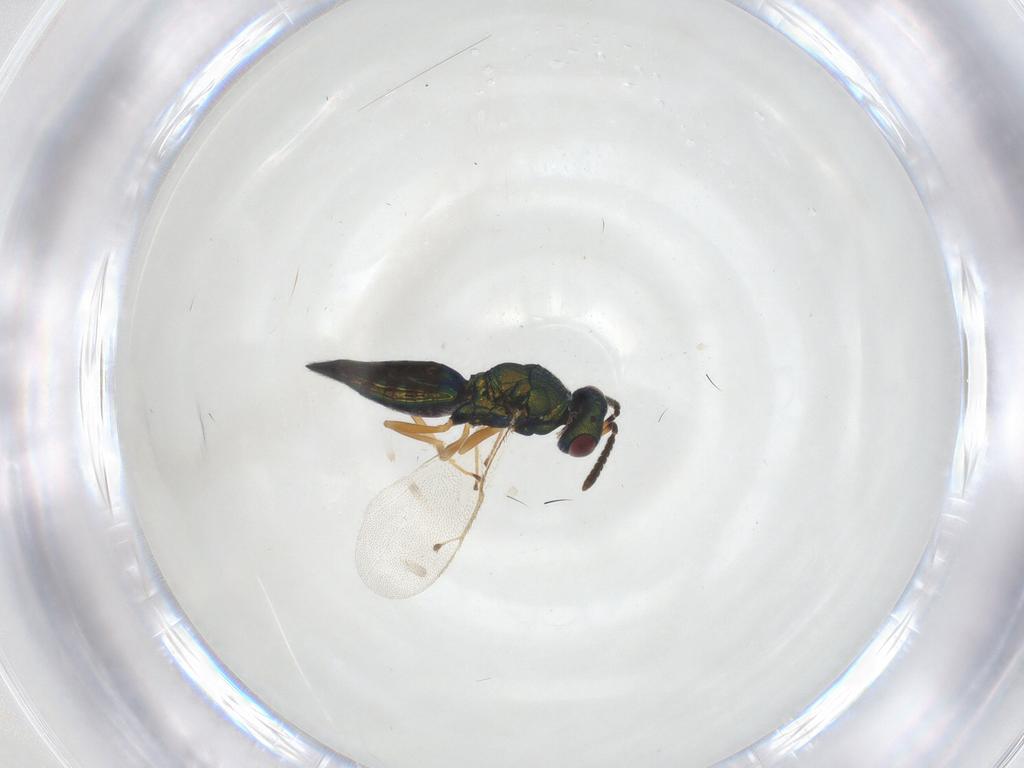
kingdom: Animalia
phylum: Arthropoda
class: Insecta
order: Hymenoptera
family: Pteromalidae
